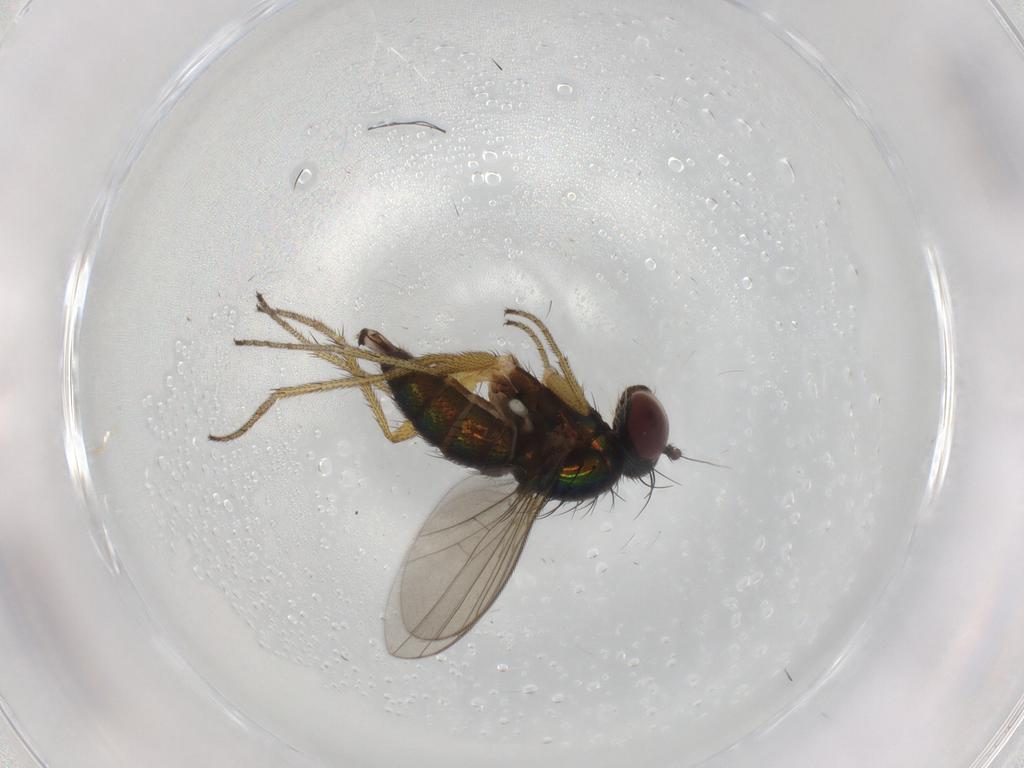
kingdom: Animalia
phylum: Arthropoda
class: Insecta
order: Diptera
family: Dolichopodidae
